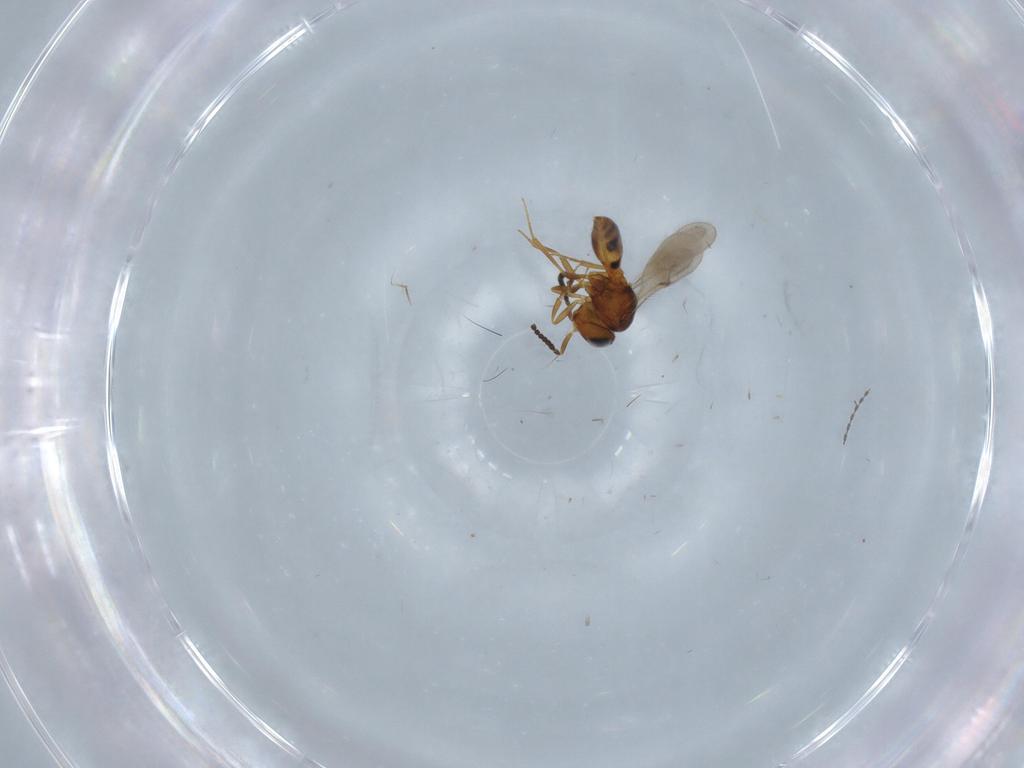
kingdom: Animalia
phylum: Arthropoda
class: Insecta
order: Hymenoptera
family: Scelionidae
